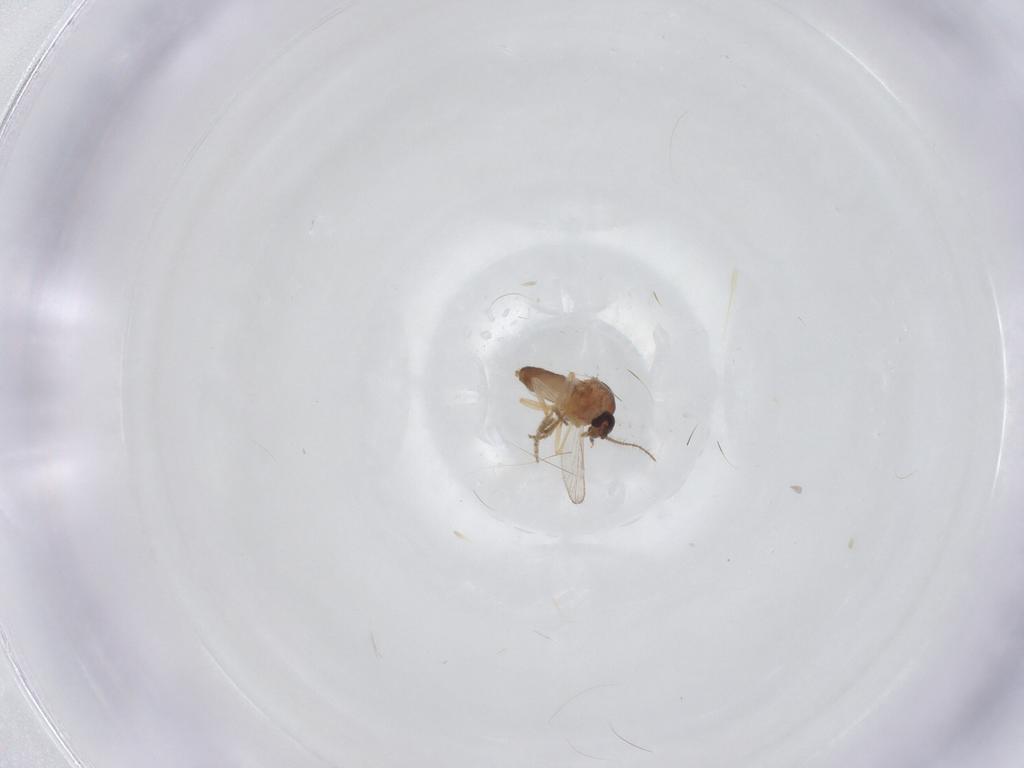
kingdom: Animalia
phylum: Arthropoda
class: Insecta
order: Diptera
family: Ceratopogonidae
